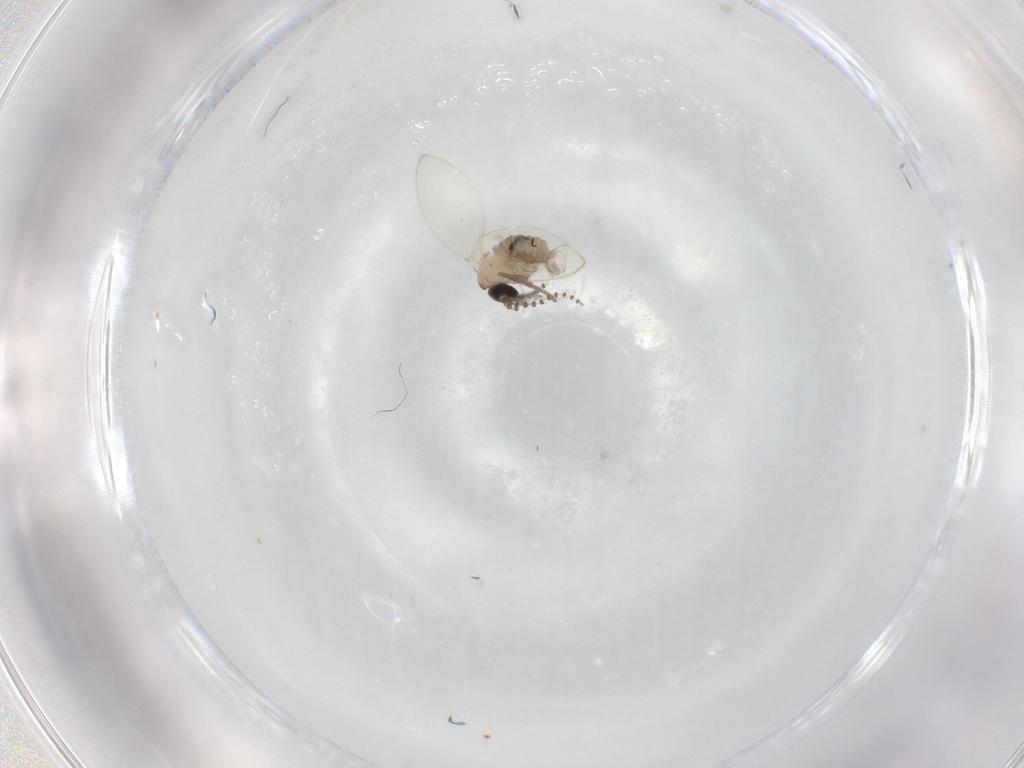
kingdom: Animalia
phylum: Arthropoda
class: Insecta
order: Diptera
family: Psychodidae
